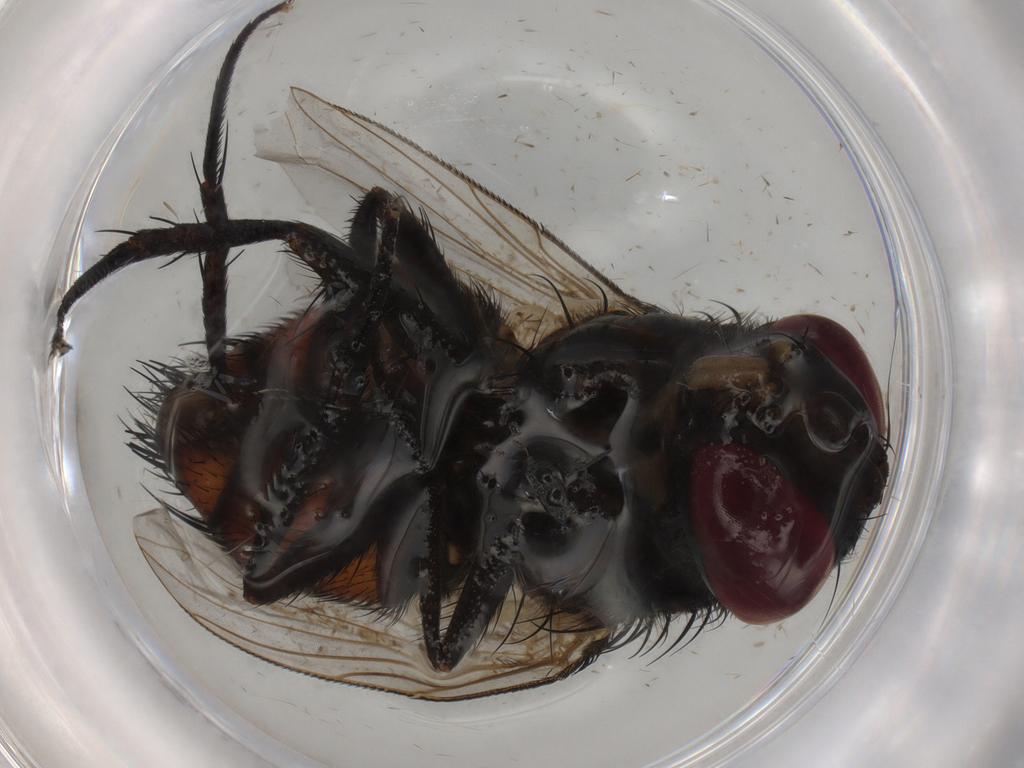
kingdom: Animalia
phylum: Arthropoda
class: Insecta
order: Diptera
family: Tachinidae
